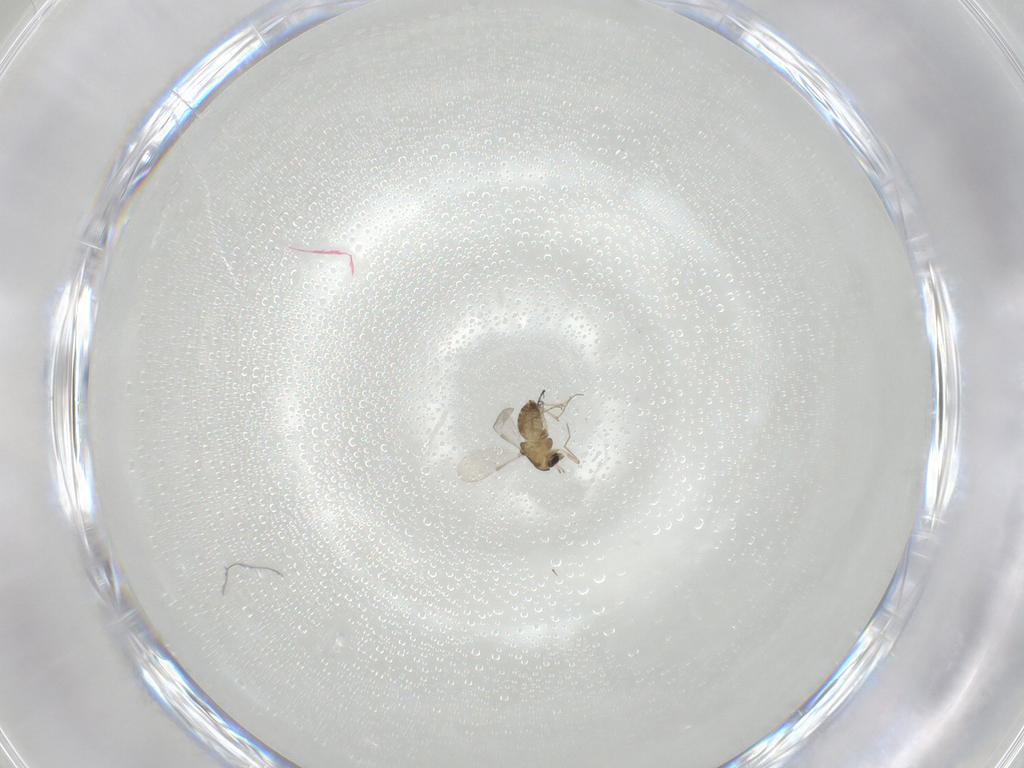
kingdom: Animalia
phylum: Arthropoda
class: Insecta
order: Diptera
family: Chironomidae
